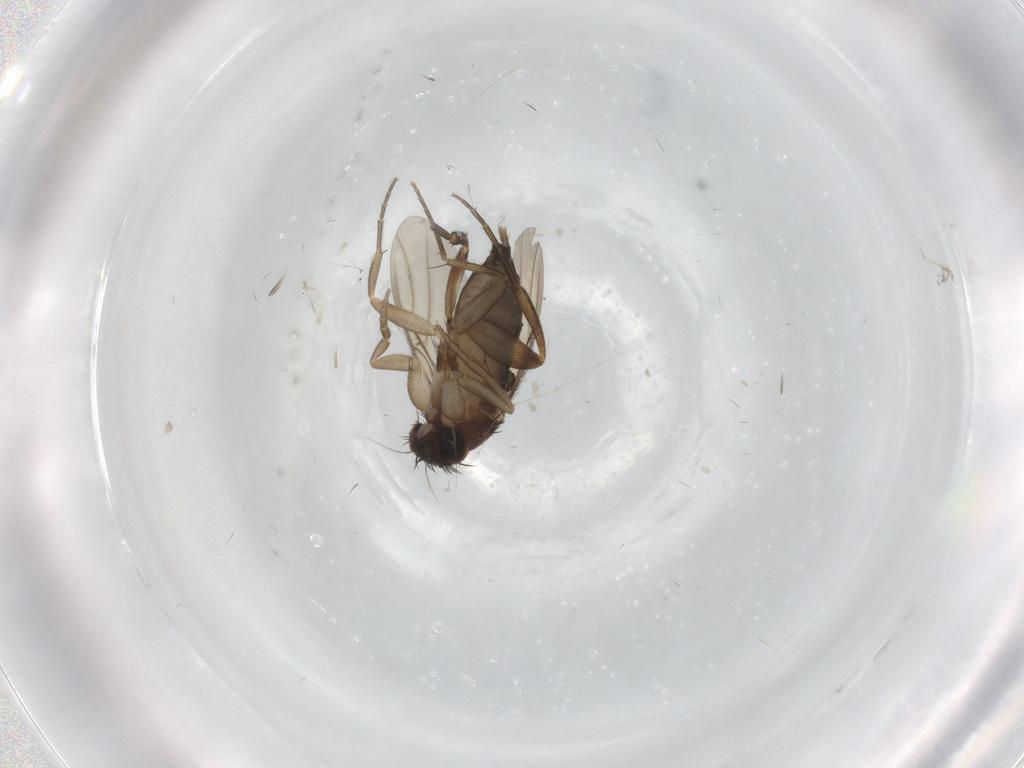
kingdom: Animalia
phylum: Arthropoda
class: Insecta
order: Diptera
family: Phoridae
